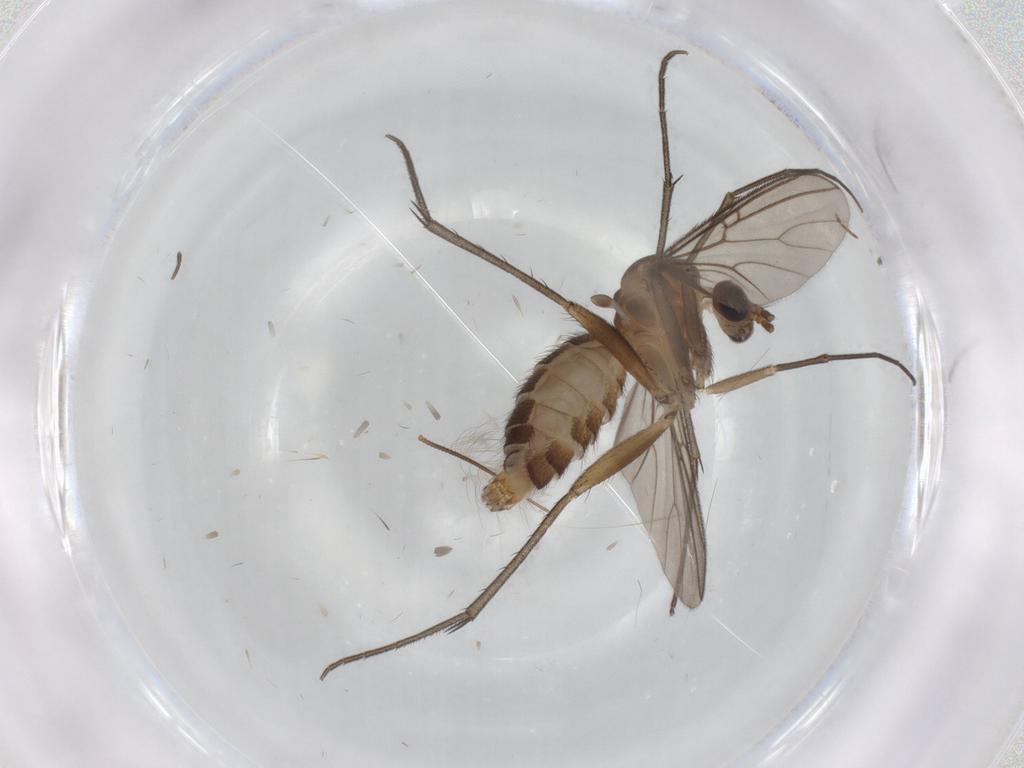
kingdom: Animalia
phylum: Arthropoda
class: Insecta
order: Diptera
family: Mycetophilidae
